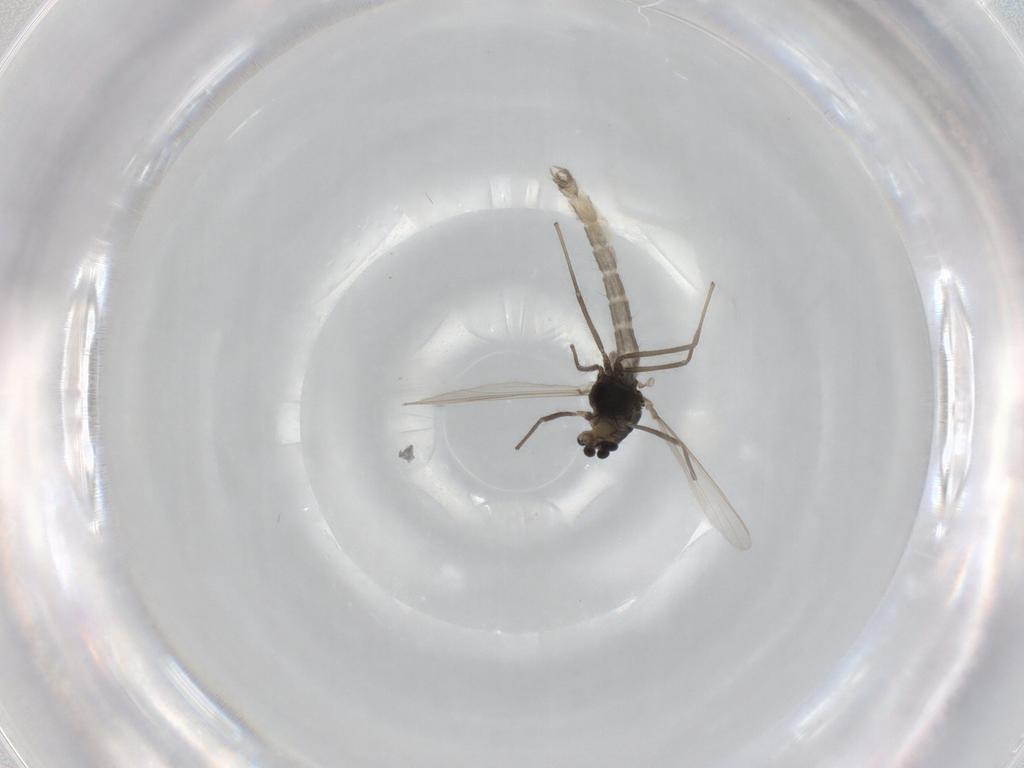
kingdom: Animalia
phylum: Arthropoda
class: Insecta
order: Diptera
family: Chironomidae
